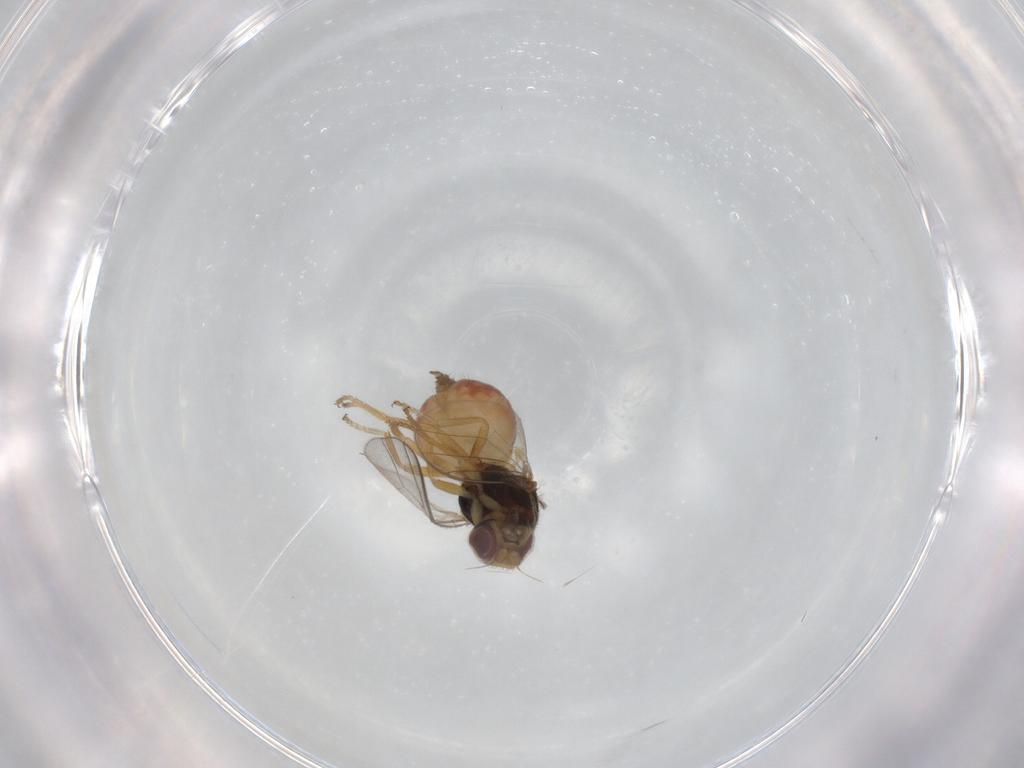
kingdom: Animalia
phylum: Arthropoda
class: Insecta
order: Diptera
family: Chloropidae
